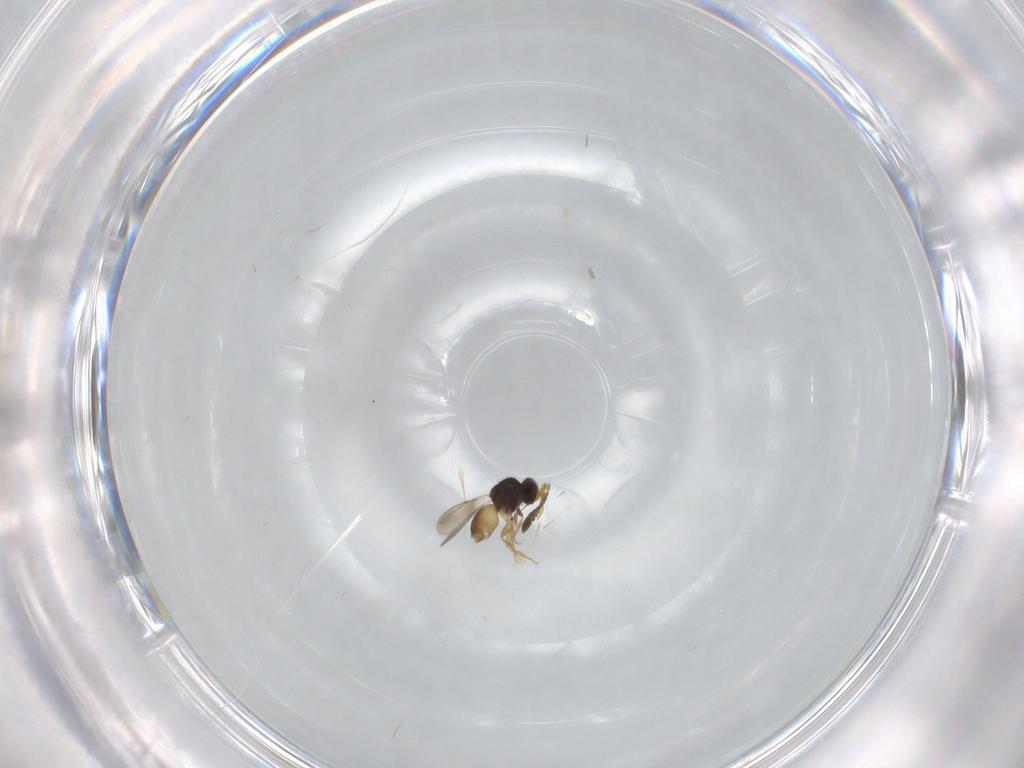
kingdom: Animalia
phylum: Arthropoda
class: Insecta
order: Hymenoptera
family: Ceraphronidae
